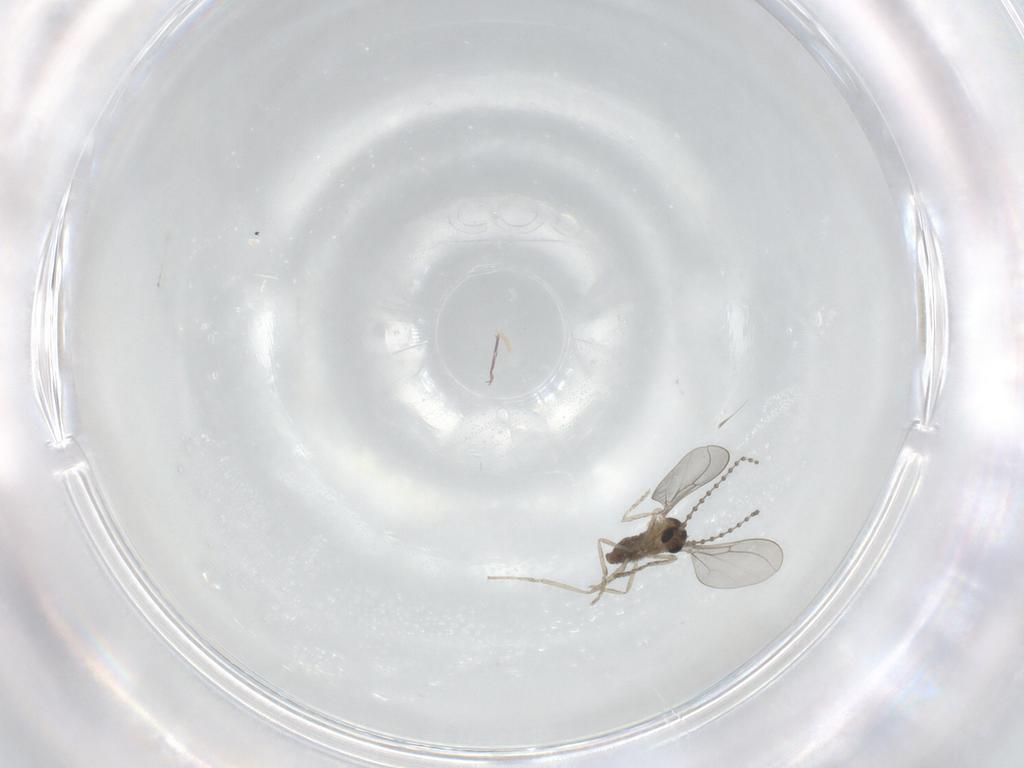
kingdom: Animalia
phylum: Arthropoda
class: Insecta
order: Diptera
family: Cecidomyiidae
